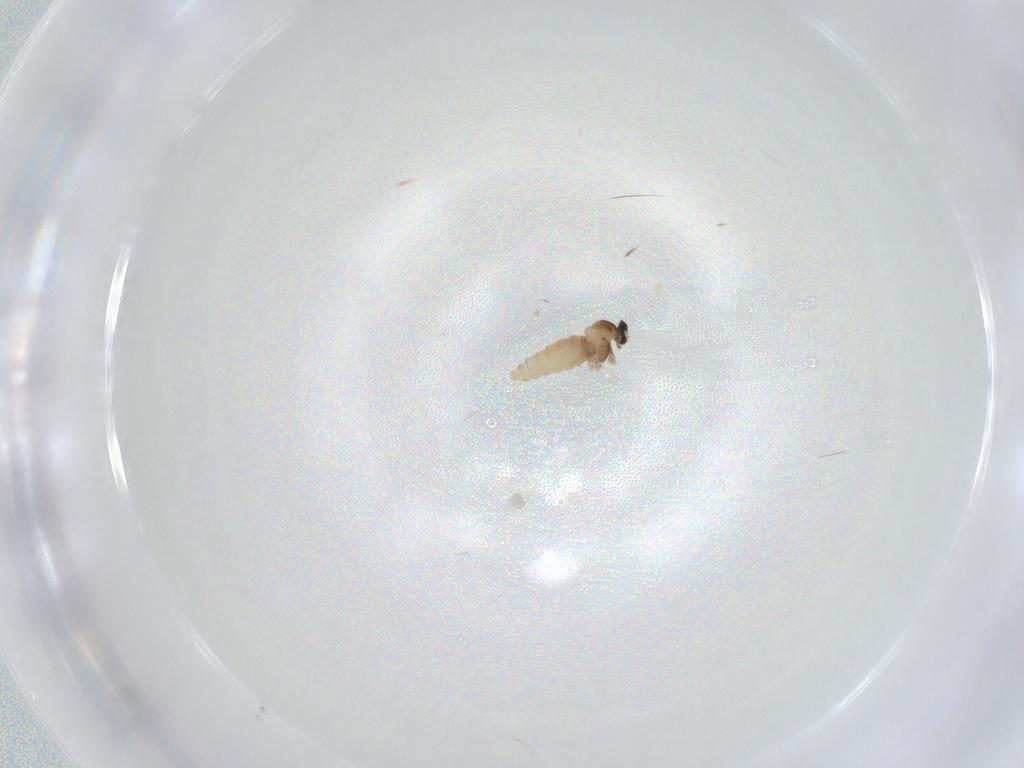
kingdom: Animalia
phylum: Arthropoda
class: Insecta
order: Diptera
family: Cecidomyiidae
